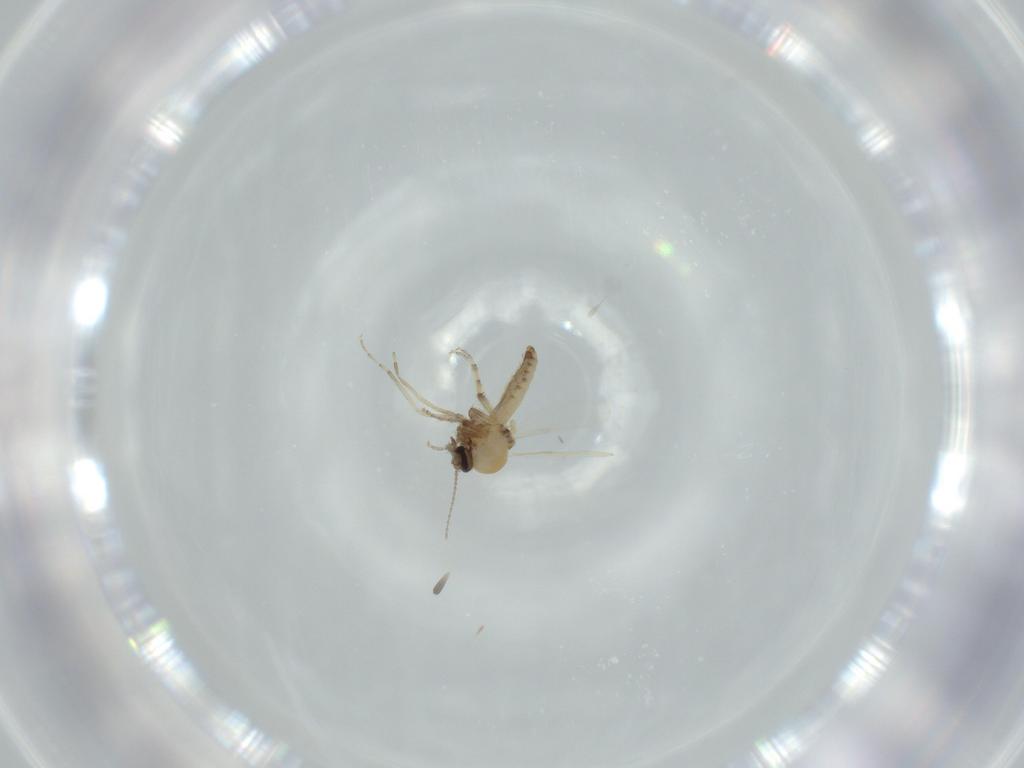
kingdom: Animalia
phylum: Arthropoda
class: Insecta
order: Diptera
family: Ceratopogonidae
